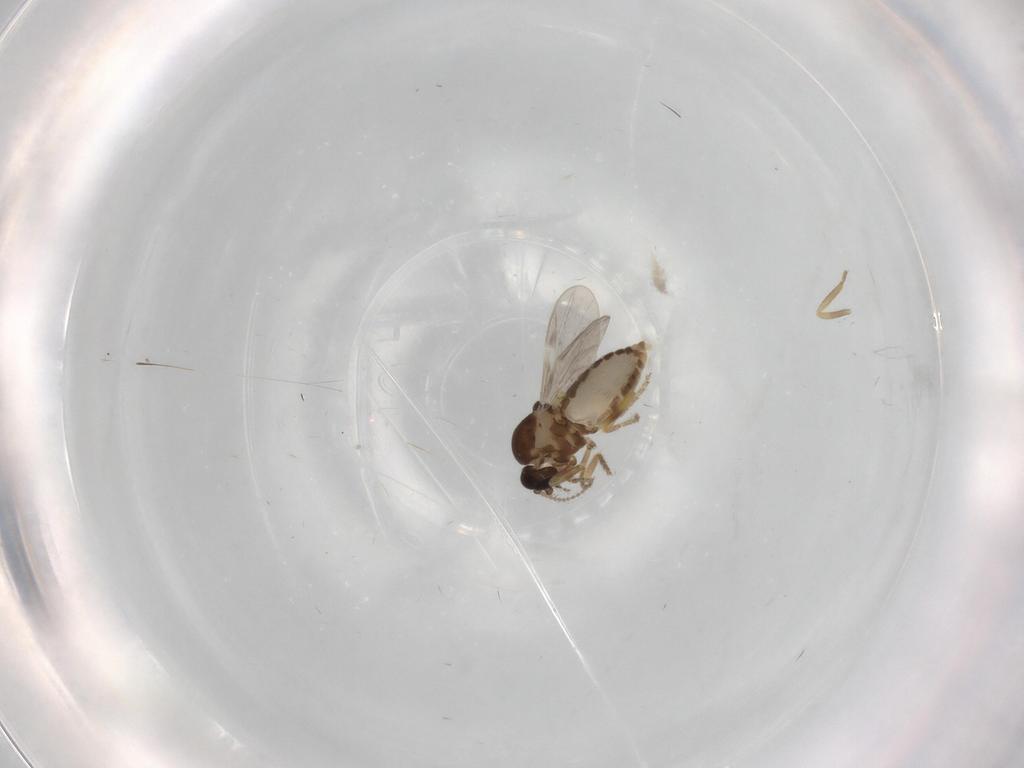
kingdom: Animalia
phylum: Arthropoda
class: Insecta
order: Diptera
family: Ceratopogonidae
